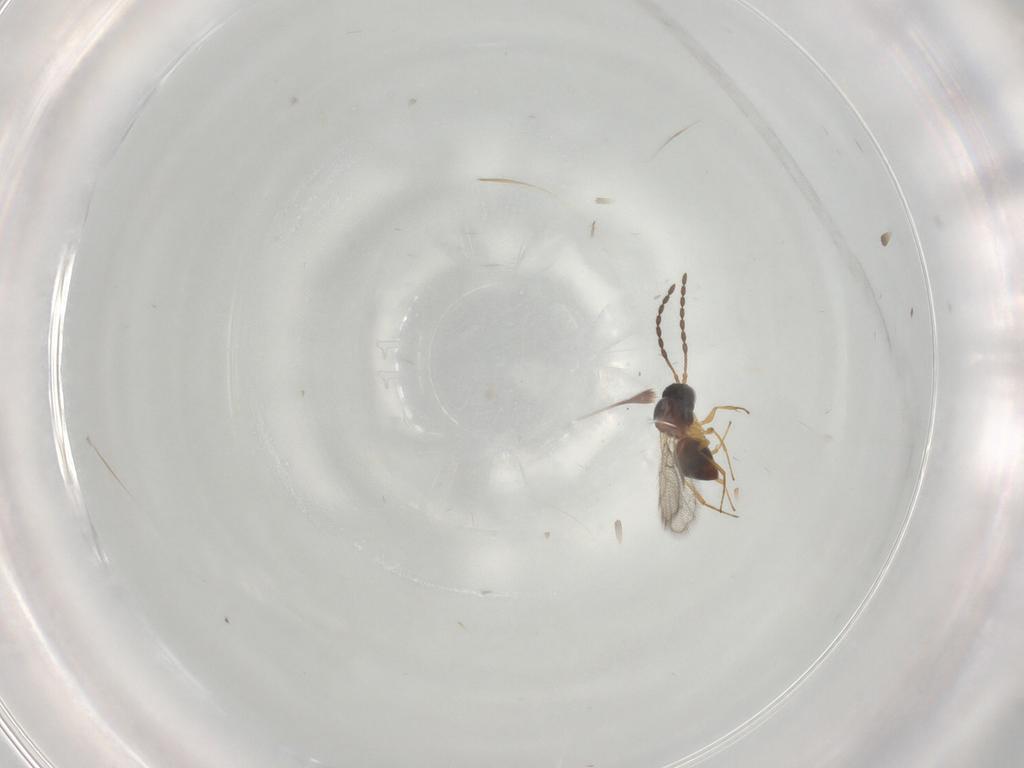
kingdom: Animalia
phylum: Arthropoda
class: Insecta
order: Hymenoptera
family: Figitidae
